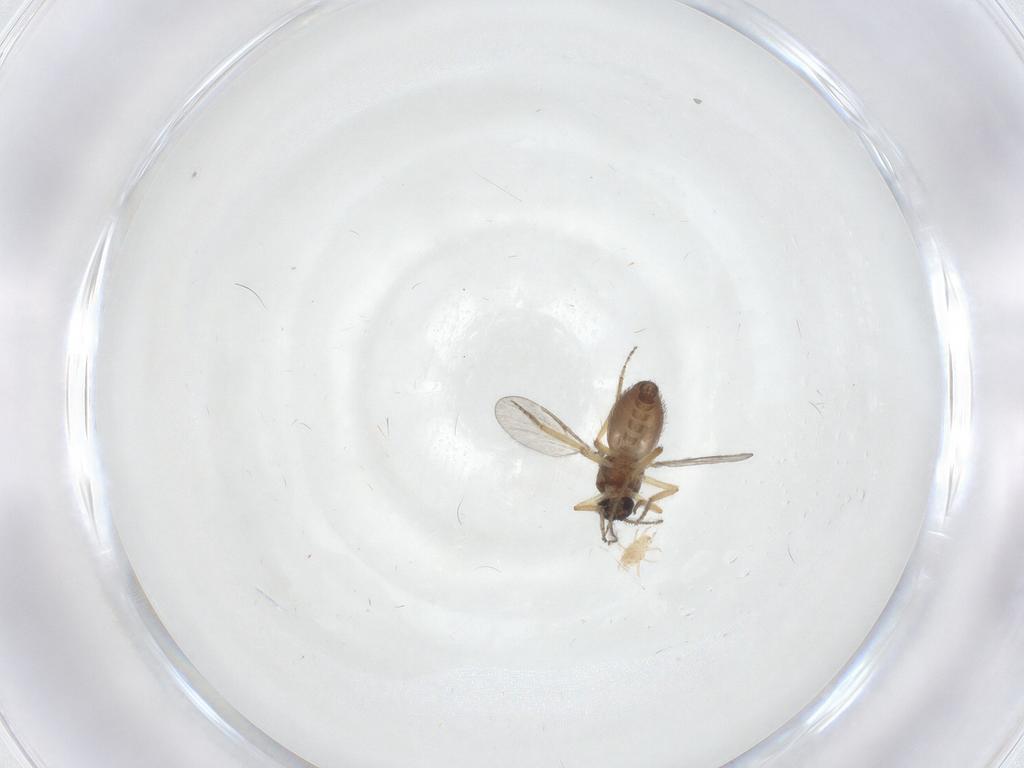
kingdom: Animalia
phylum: Arthropoda
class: Insecta
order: Diptera
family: Ceratopogonidae
